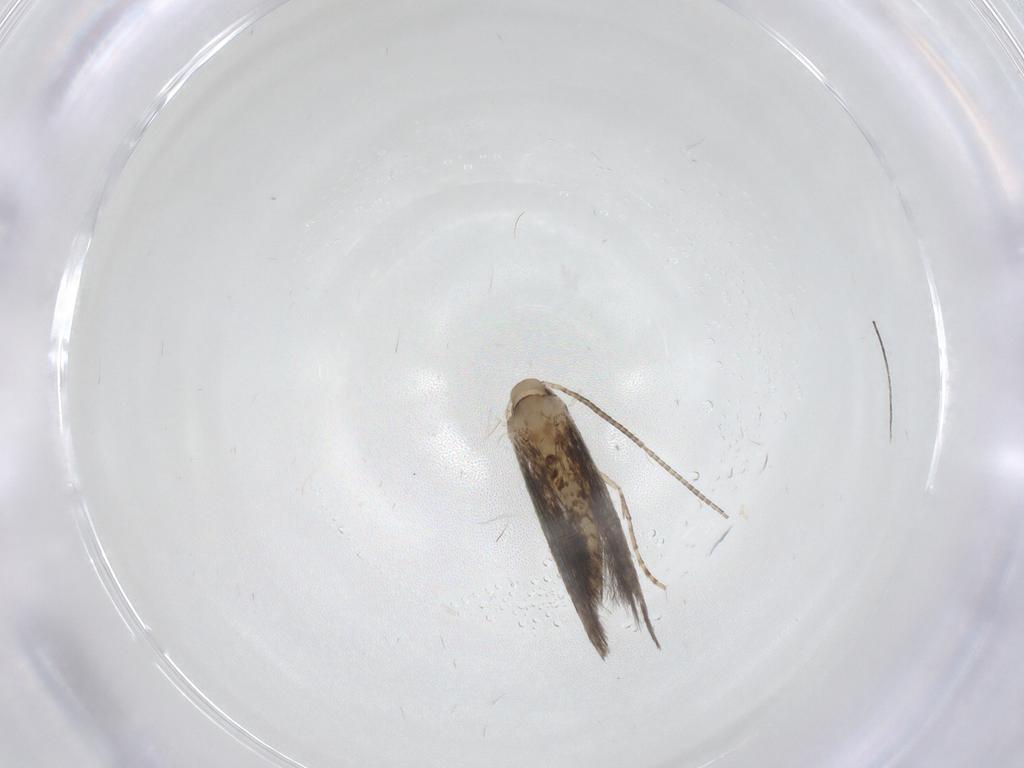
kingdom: Animalia
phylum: Arthropoda
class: Insecta
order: Lepidoptera
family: Gracillariidae
